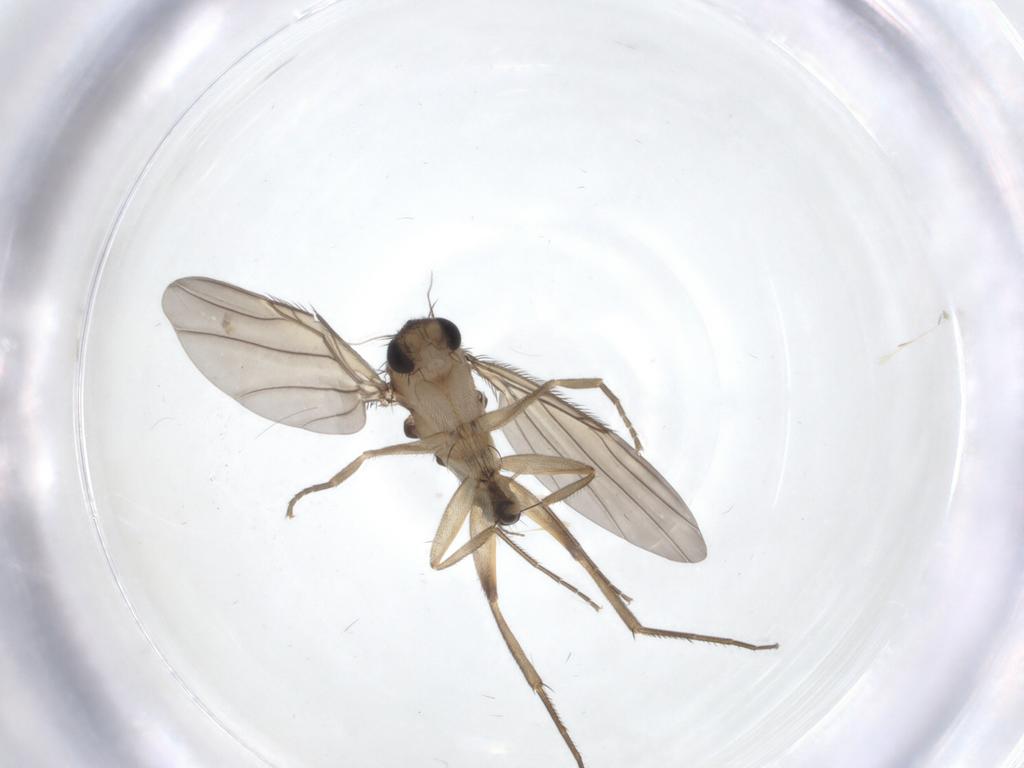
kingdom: Animalia
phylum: Arthropoda
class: Insecta
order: Diptera
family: Phoridae
